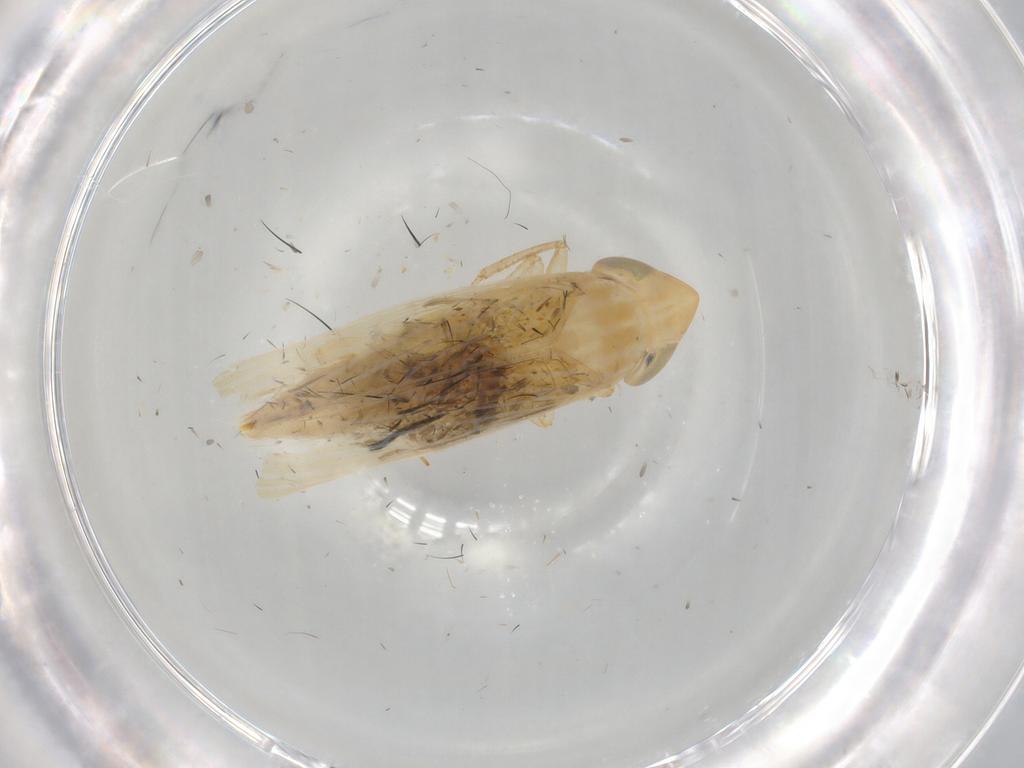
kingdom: Animalia
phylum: Arthropoda
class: Insecta
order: Hemiptera
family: Cicadellidae
